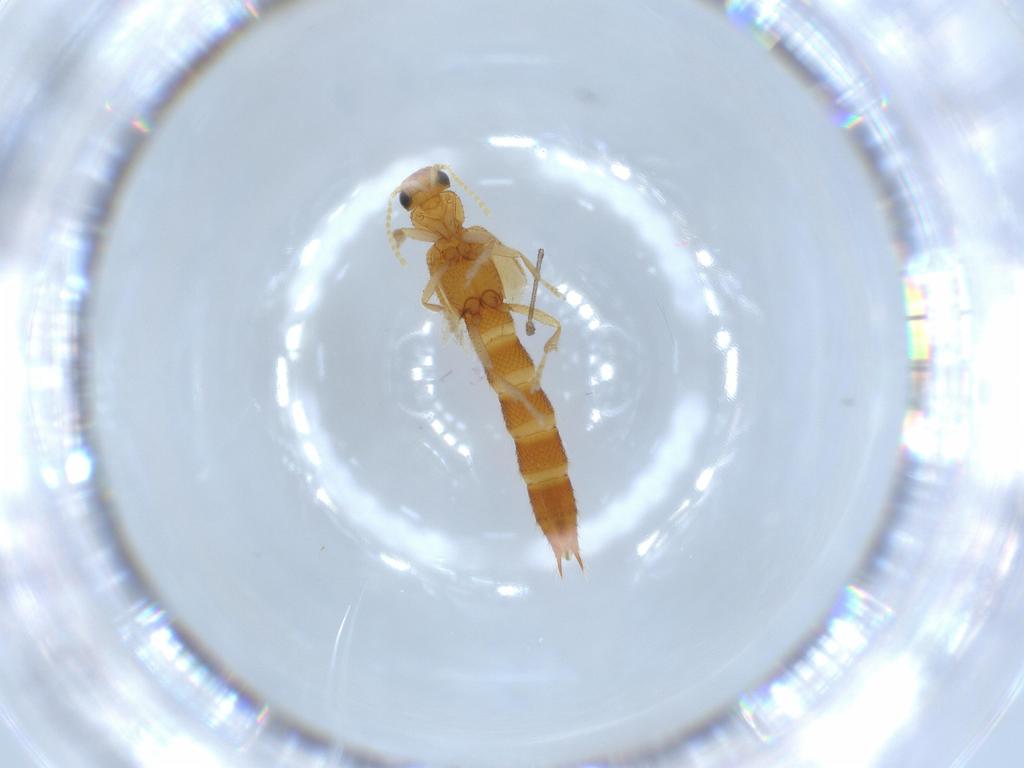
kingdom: Animalia
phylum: Arthropoda
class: Insecta
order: Coleoptera
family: Staphylinidae
